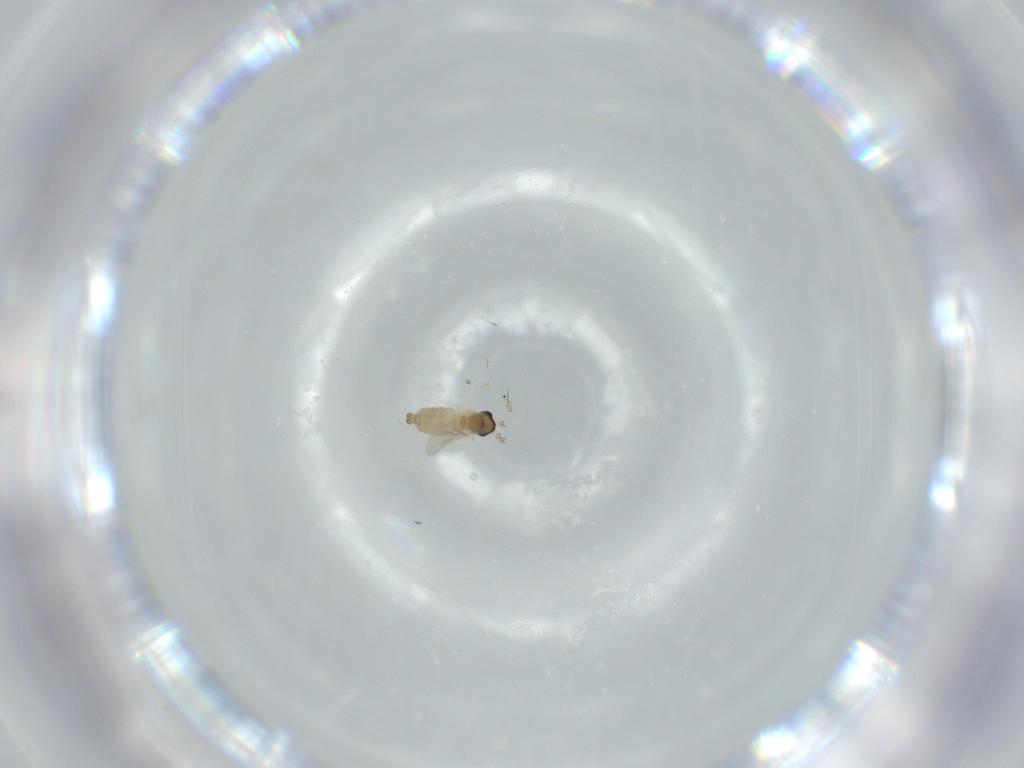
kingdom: Animalia
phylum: Arthropoda
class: Insecta
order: Diptera
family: Cecidomyiidae
